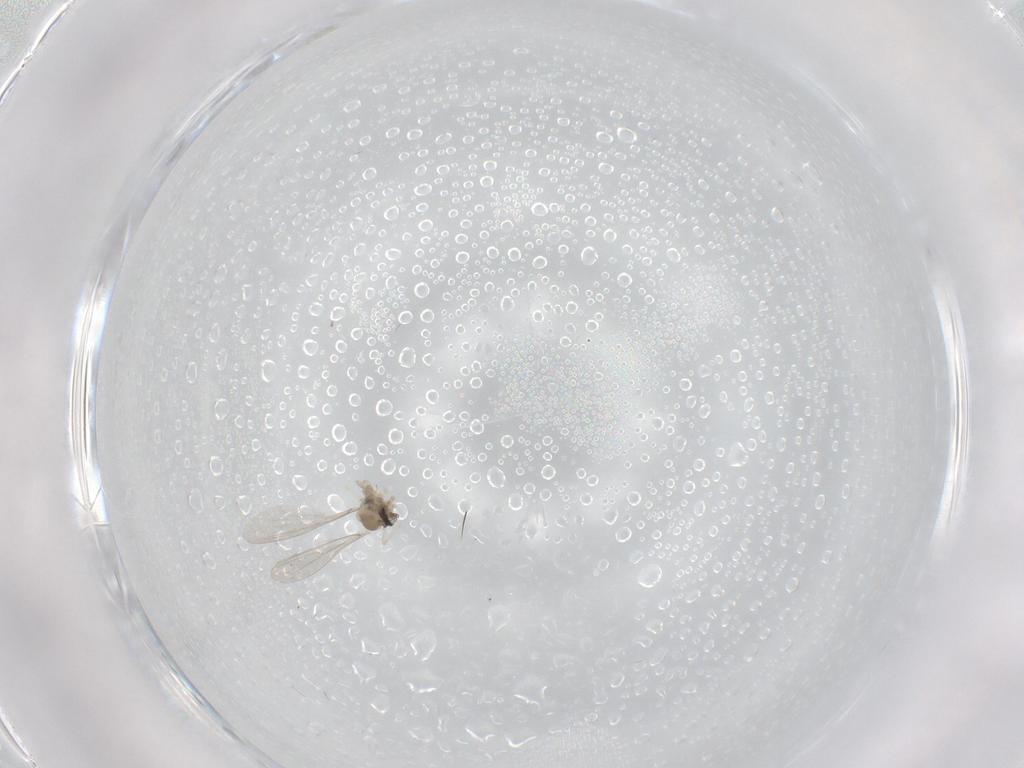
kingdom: Animalia
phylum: Arthropoda
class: Insecta
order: Diptera
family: Cecidomyiidae
